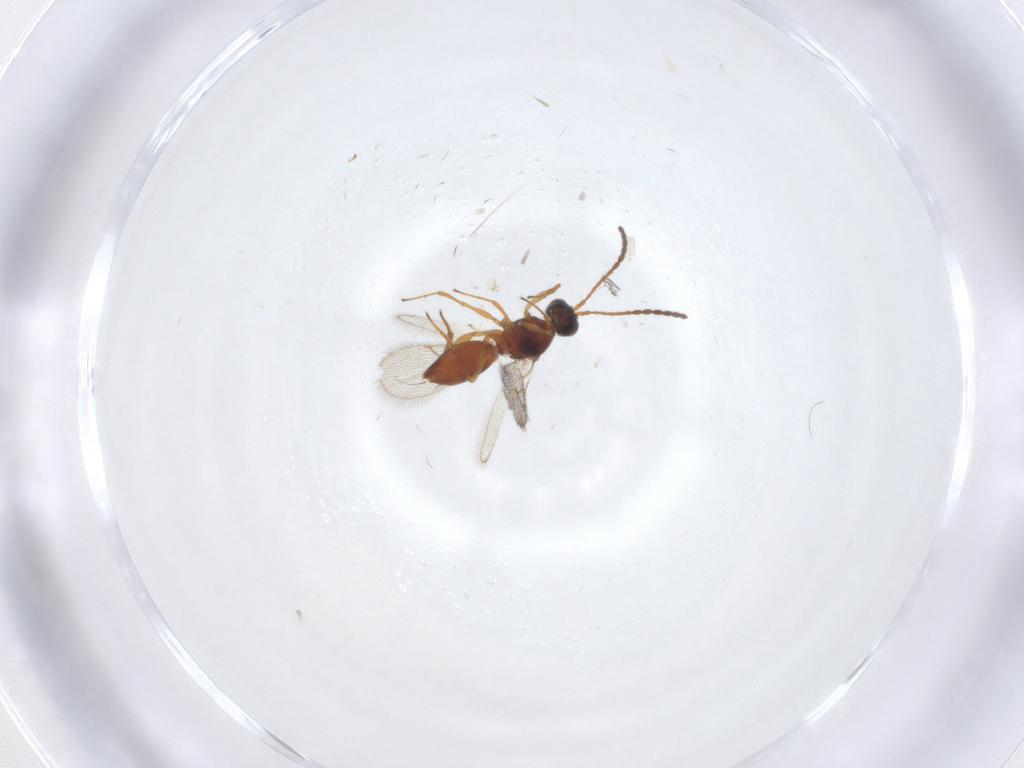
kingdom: Animalia
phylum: Arthropoda
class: Insecta
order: Hymenoptera
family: Figitidae
